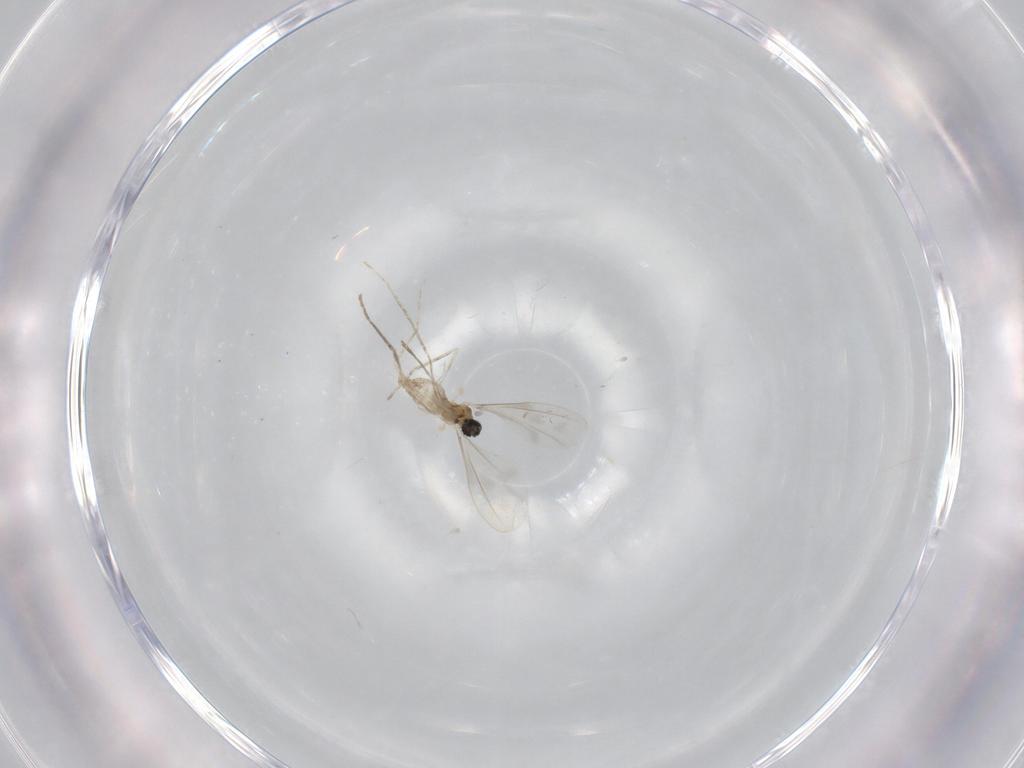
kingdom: Animalia
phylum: Arthropoda
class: Insecta
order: Diptera
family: Cecidomyiidae
